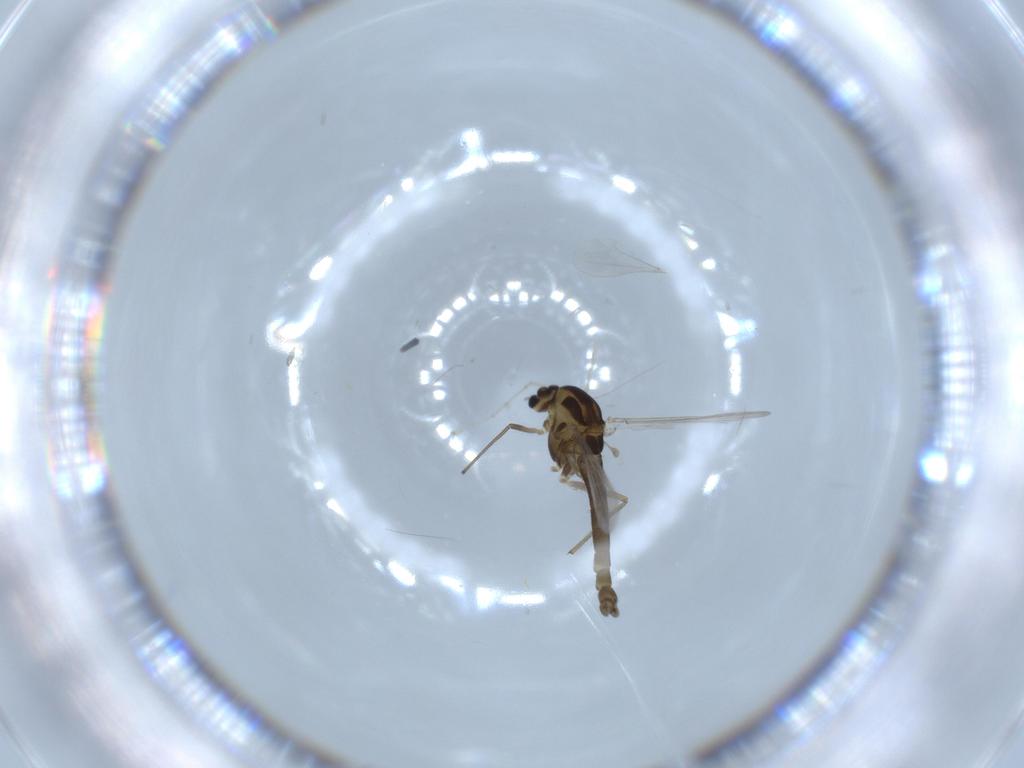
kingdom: Animalia
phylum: Arthropoda
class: Insecta
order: Diptera
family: Chironomidae
